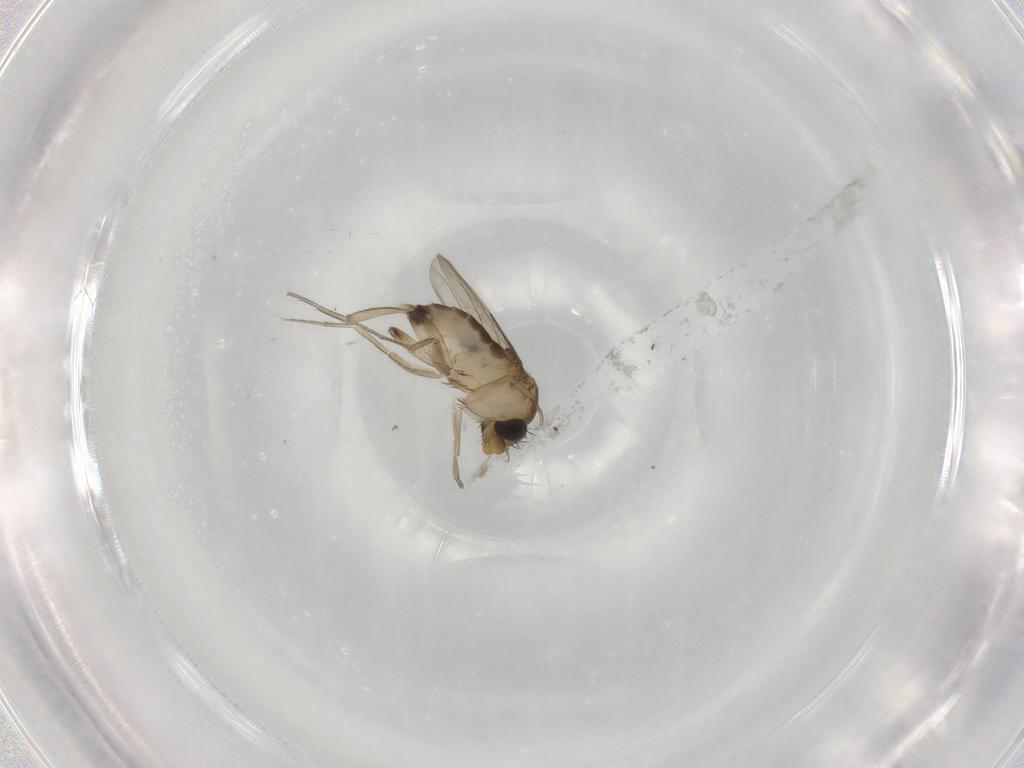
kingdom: Animalia
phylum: Arthropoda
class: Insecta
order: Diptera
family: Phoridae
